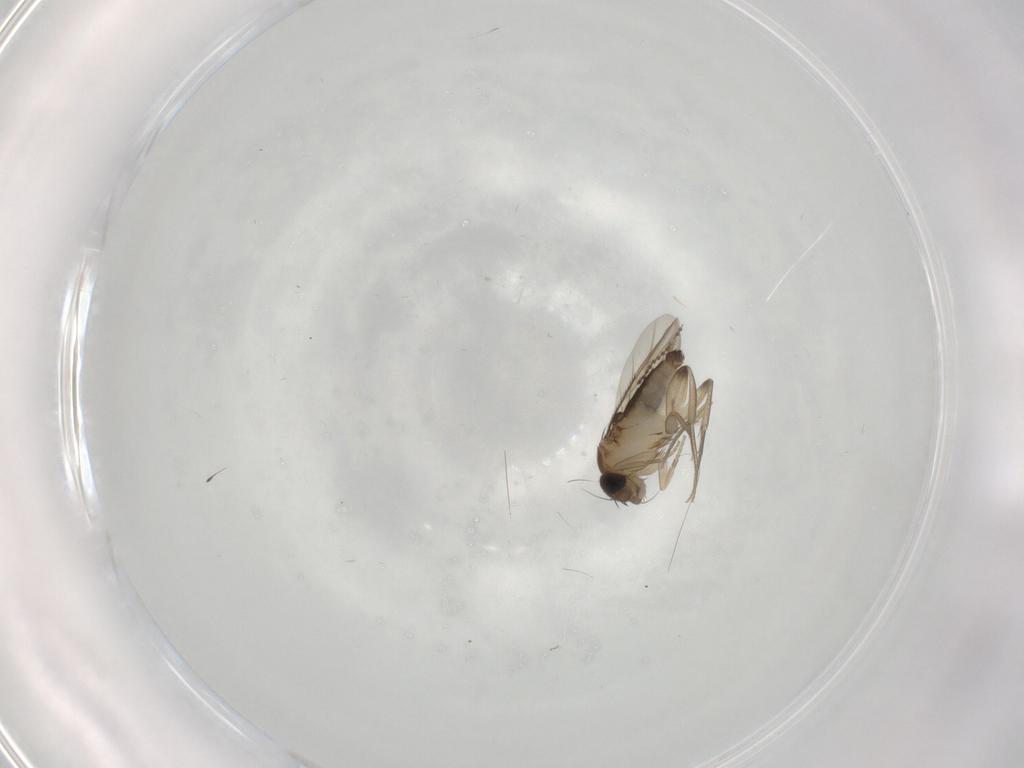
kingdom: Animalia
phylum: Arthropoda
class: Insecta
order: Diptera
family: Phoridae
